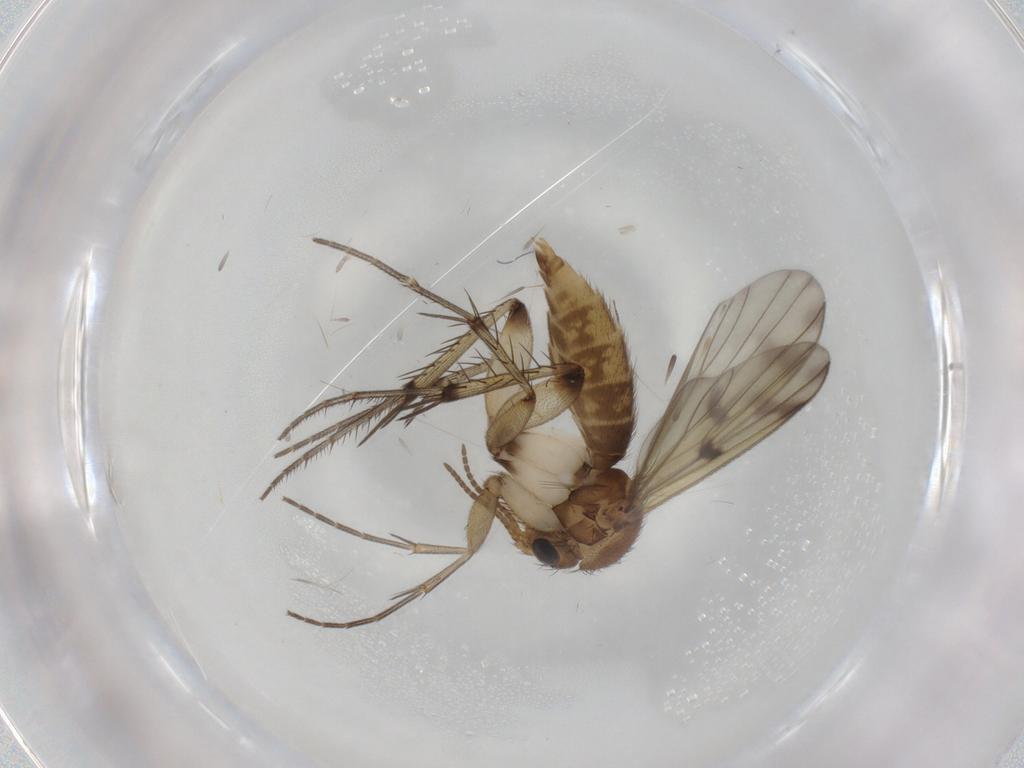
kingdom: Animalia
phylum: Arthropoda
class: Insecta
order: Diptera
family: Mycetophilidae
